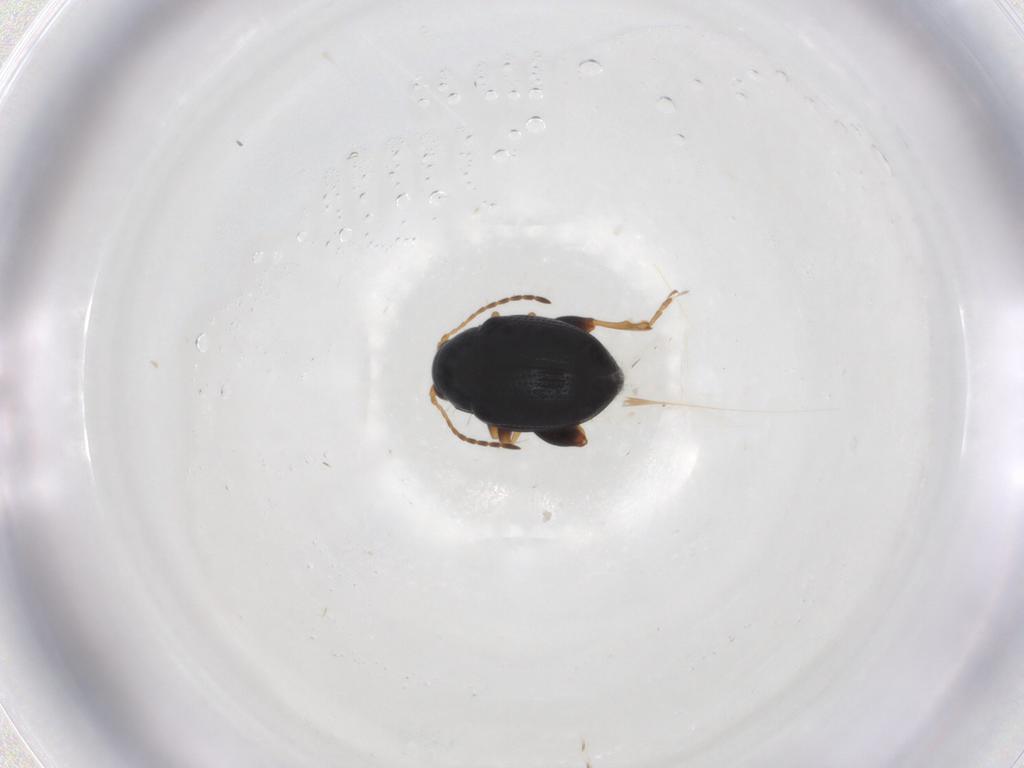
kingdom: Animalia
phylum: Arthropoda
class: Insecta
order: Coleoptera
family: Chrysomelidae
